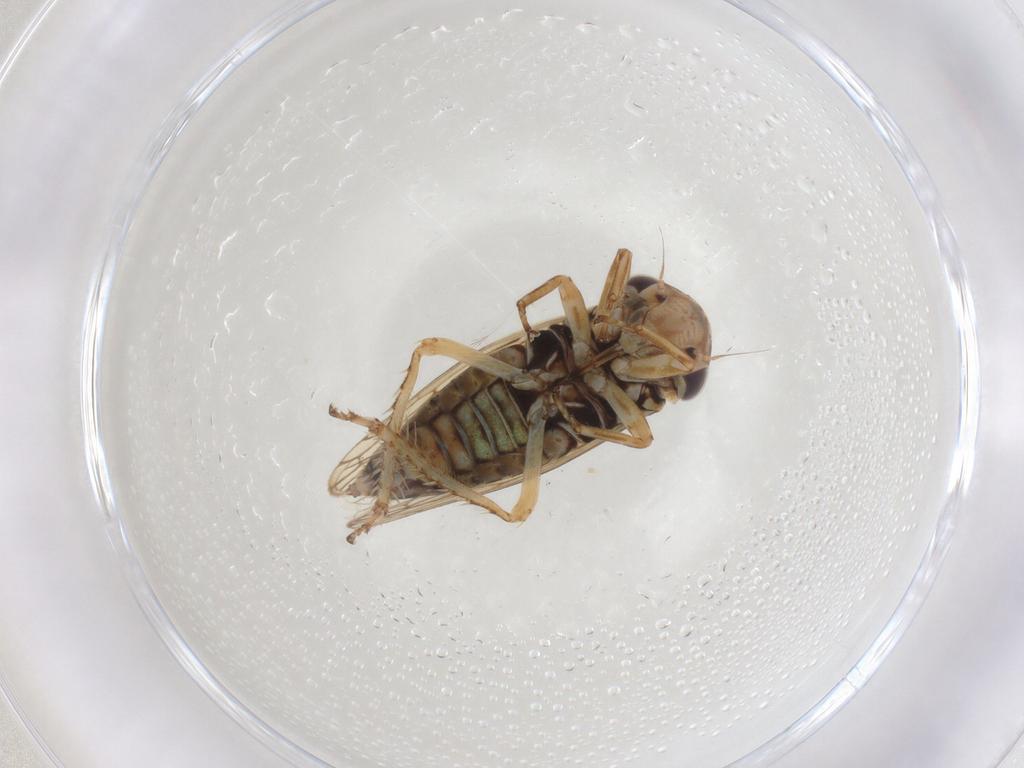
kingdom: Animalia
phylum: Arthropoda
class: Insecta
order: Hemiptera
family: Cicadellidae
